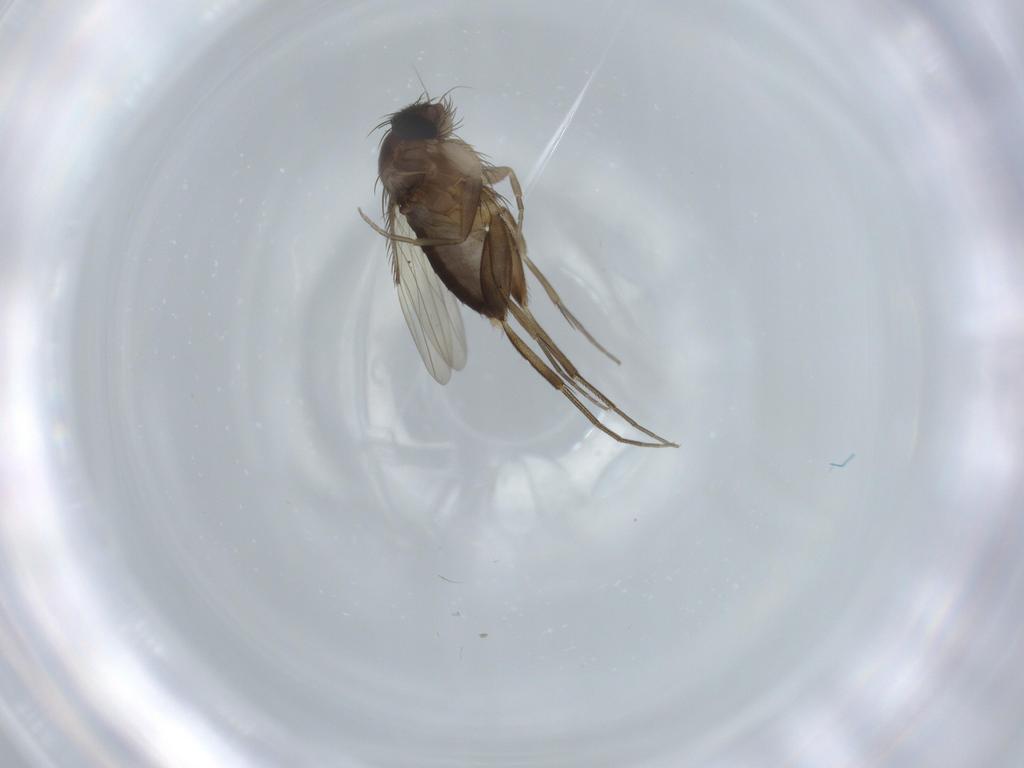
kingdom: Animalia
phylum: Arthropoda
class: Insecta
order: Diptera
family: Phoridae
